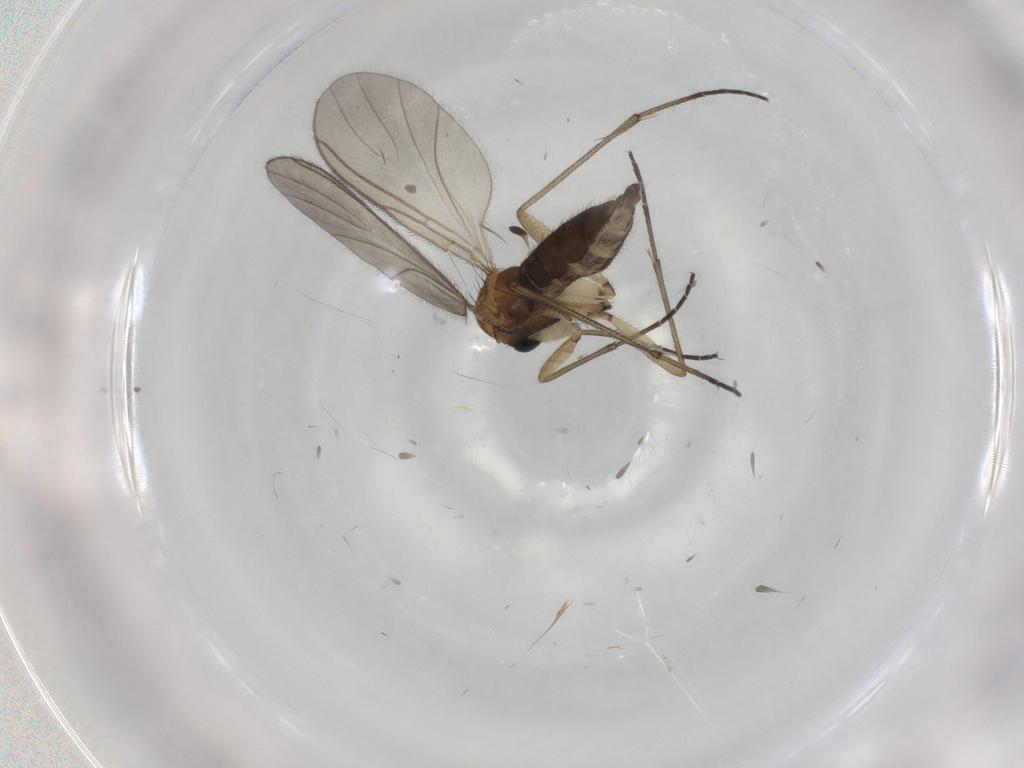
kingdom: Animalia
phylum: Arthropoda
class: Insecta
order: Diptera
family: Sciaridae
